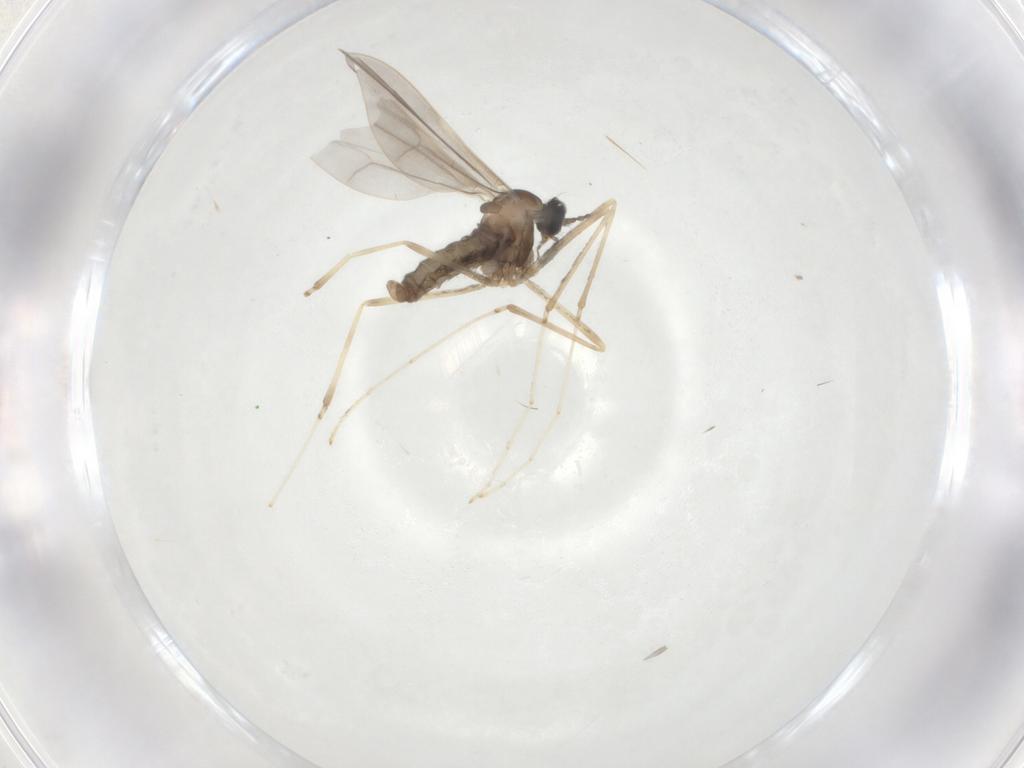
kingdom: Animalia
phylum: Arthropoda
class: Insecta
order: Diptera
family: Cecidomyiidae
